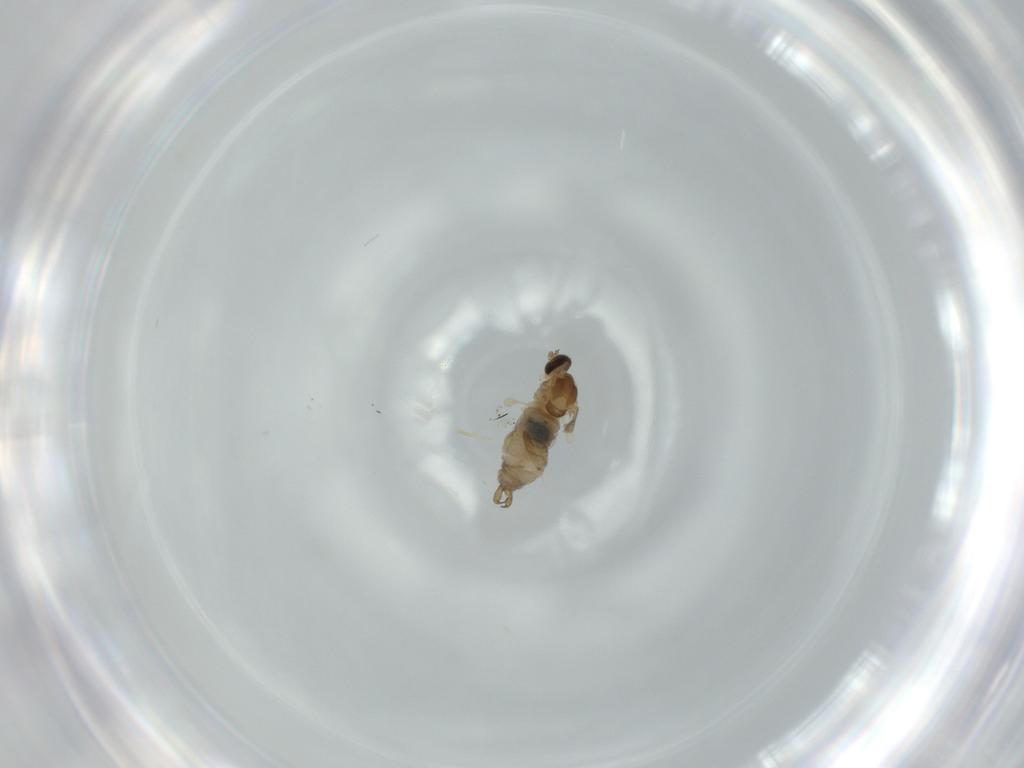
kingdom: Animalia
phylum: Arthropoda
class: Insecta
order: Diptera
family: Cecidomyiidae
